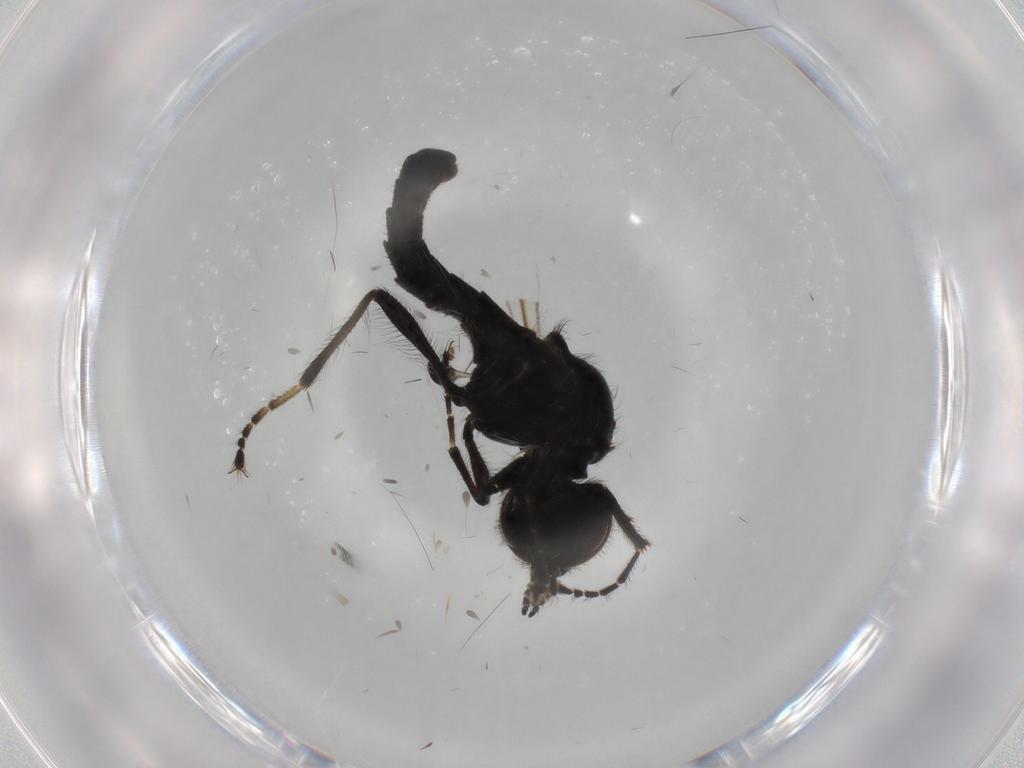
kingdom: Animalia
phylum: Arthropoda
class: Insecta
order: Diptera
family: Bibionidae
